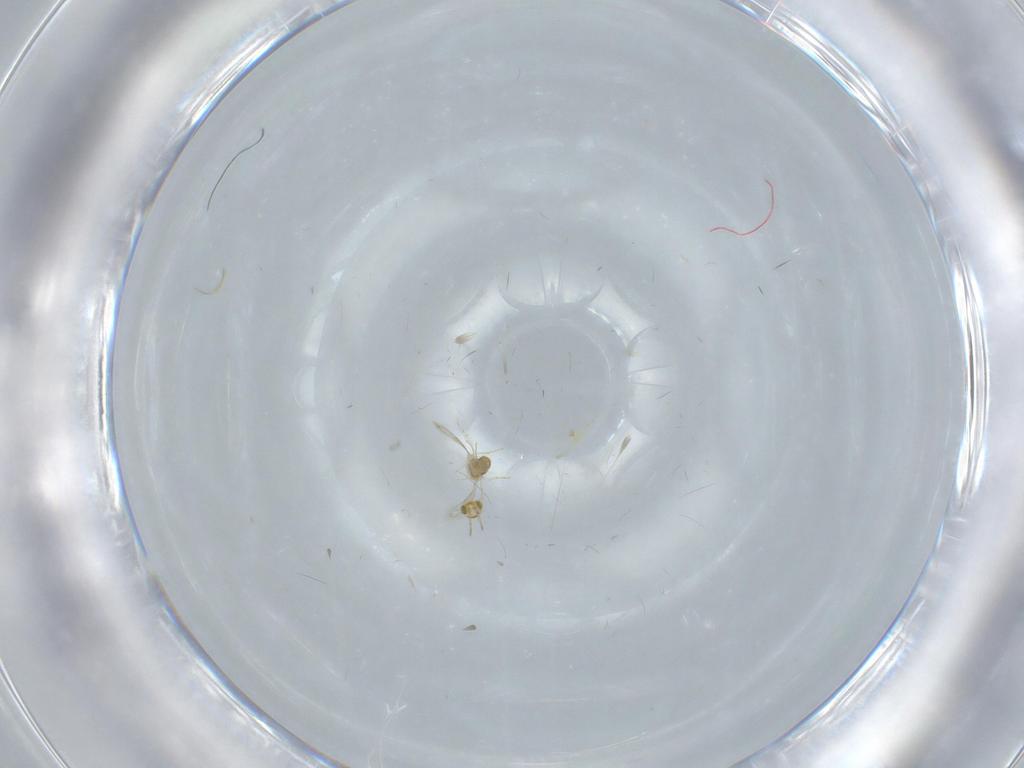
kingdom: Animalia
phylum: Arthropoda
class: Insecta
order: Hymenoptera
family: Aphelinidae
